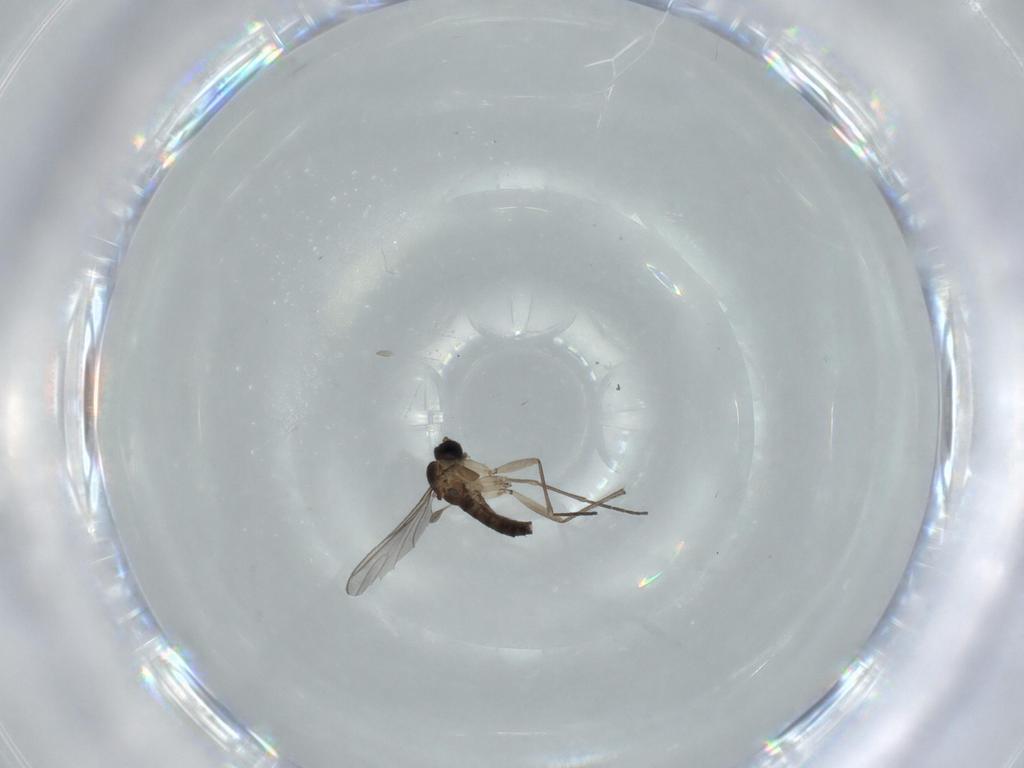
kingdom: Animalia
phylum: Arthropoda
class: Insecta
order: Diptera
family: Sciaridae
